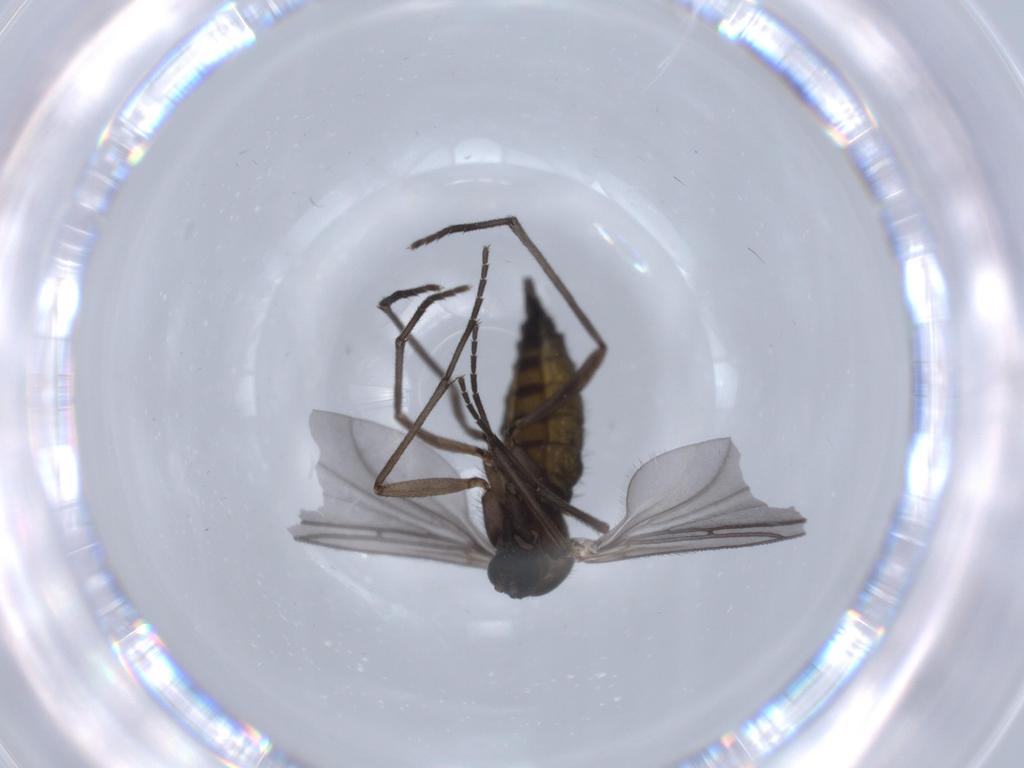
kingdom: Animalia
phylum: Arthropoda
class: Insecta
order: Diptera
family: Sciaridae
